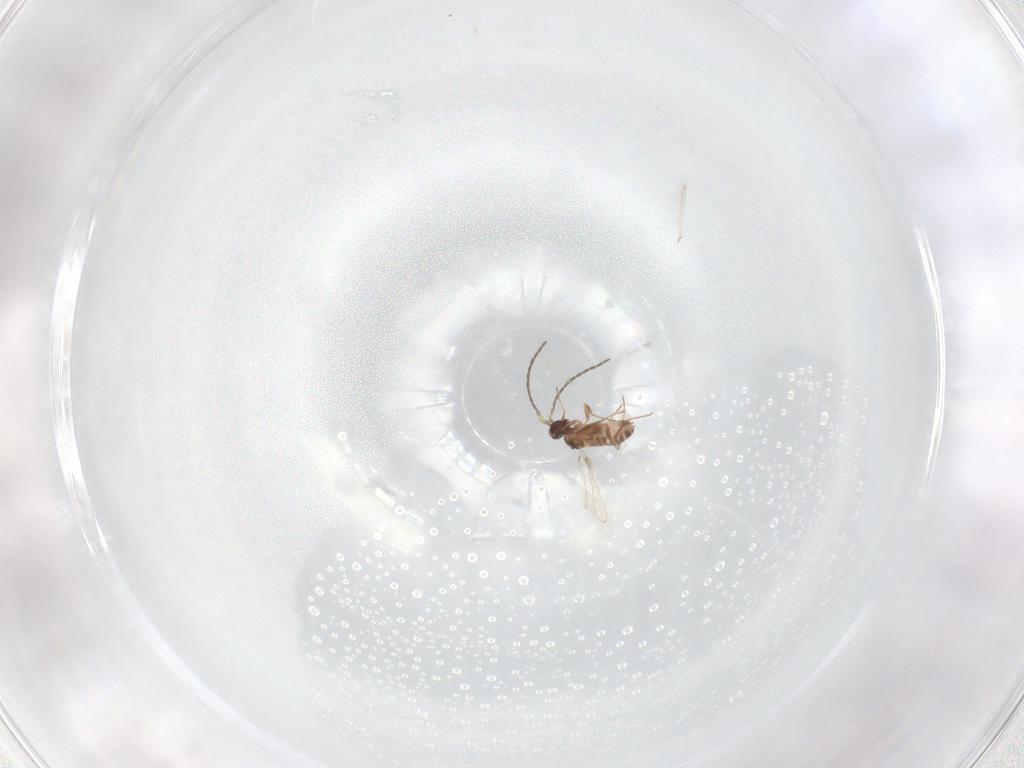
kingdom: Animalia
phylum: Arthropoda
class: Insecta
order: Hymenoptera
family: Mymaridae
